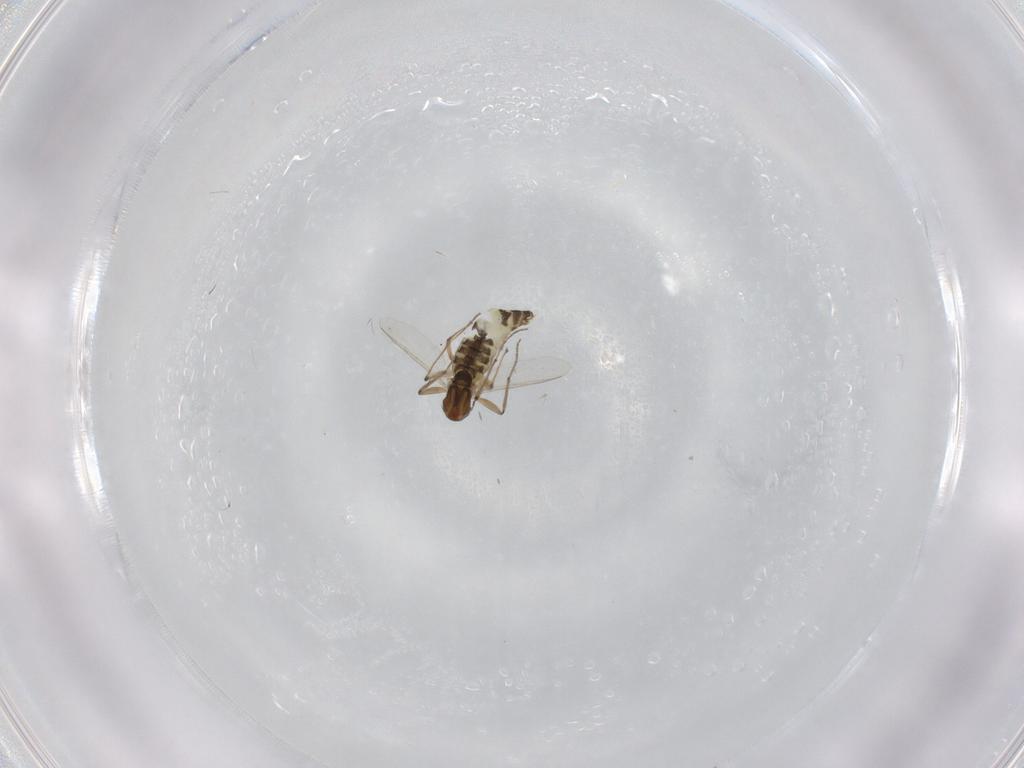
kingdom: Animalia
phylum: Arthropoda
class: Insecta
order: Diptera
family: Chironomidae
